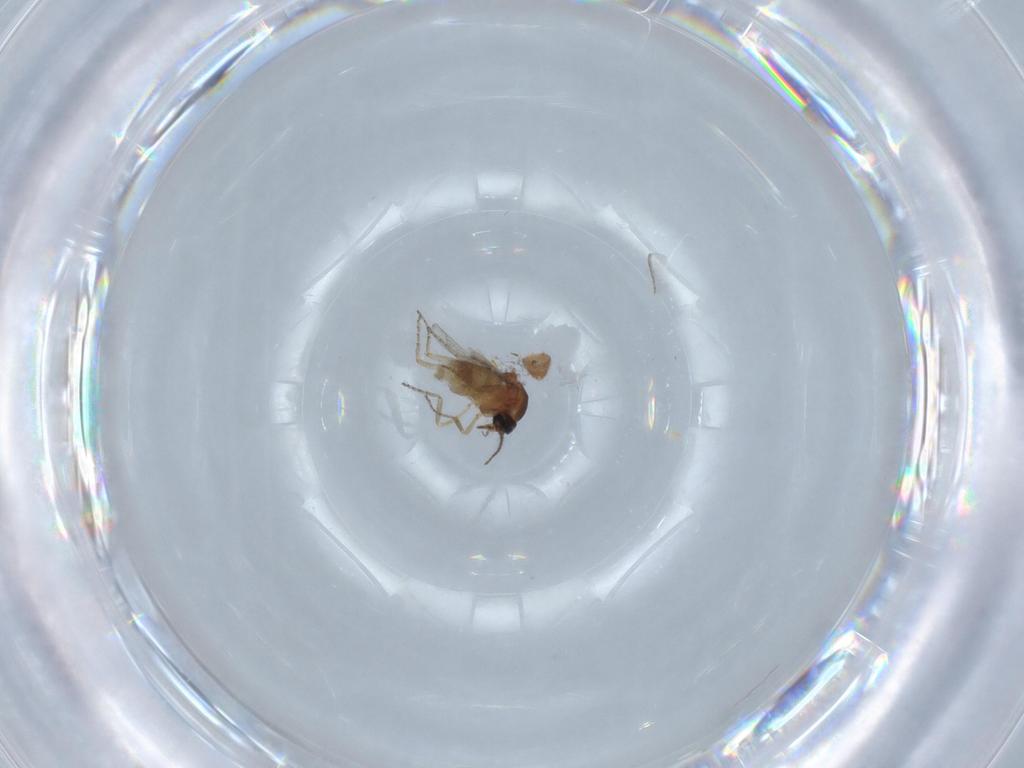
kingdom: Animalia
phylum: Arthropoda
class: Insecta
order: Diptera
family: Ceratopogonidae
